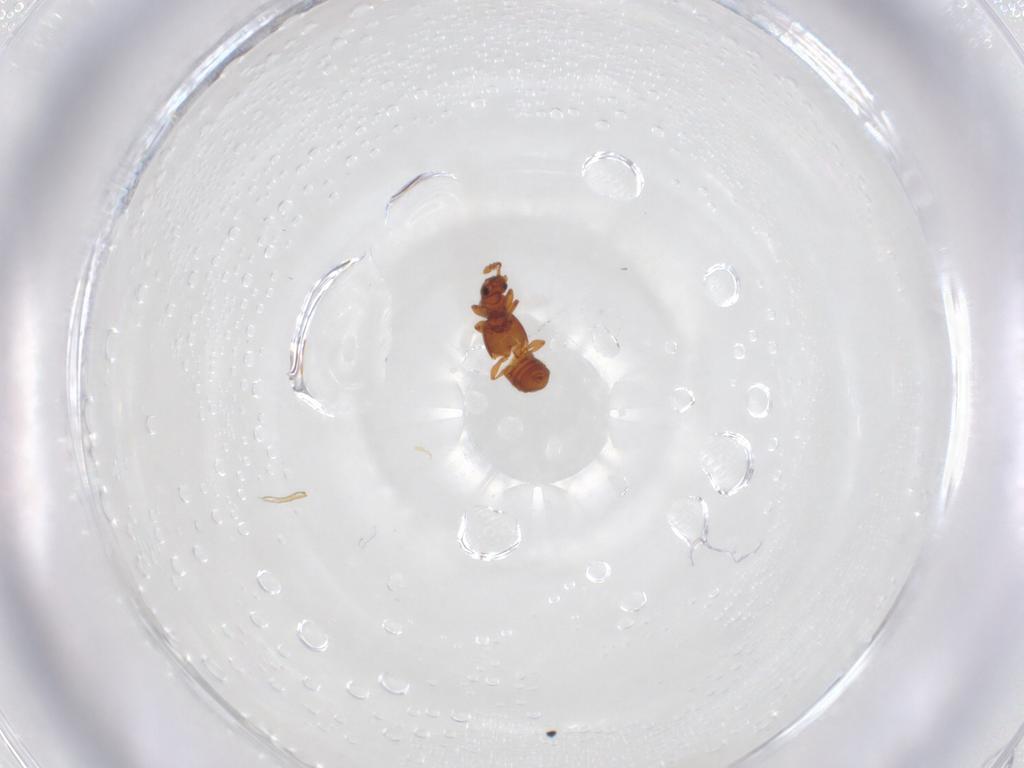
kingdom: Animalia
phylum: Arthropoda
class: Insecta
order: Coleoptera
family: Staphylinidae
